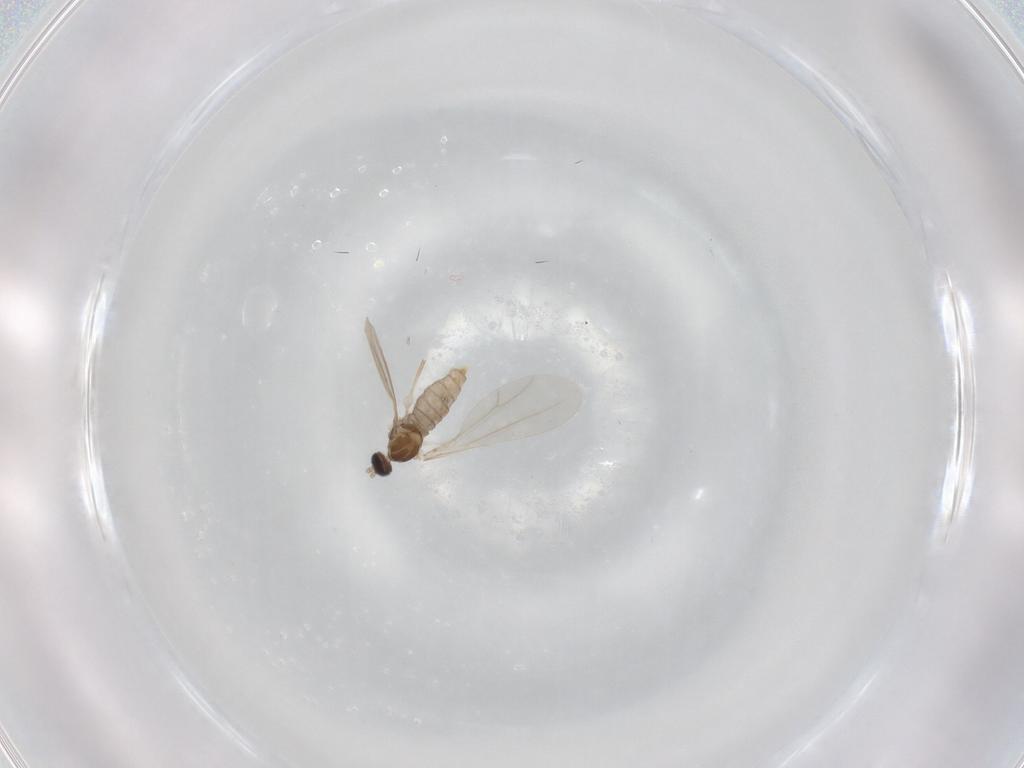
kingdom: Animalia
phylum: Arthropoda
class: Insecta
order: Diptera
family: Cecidomyiidae
